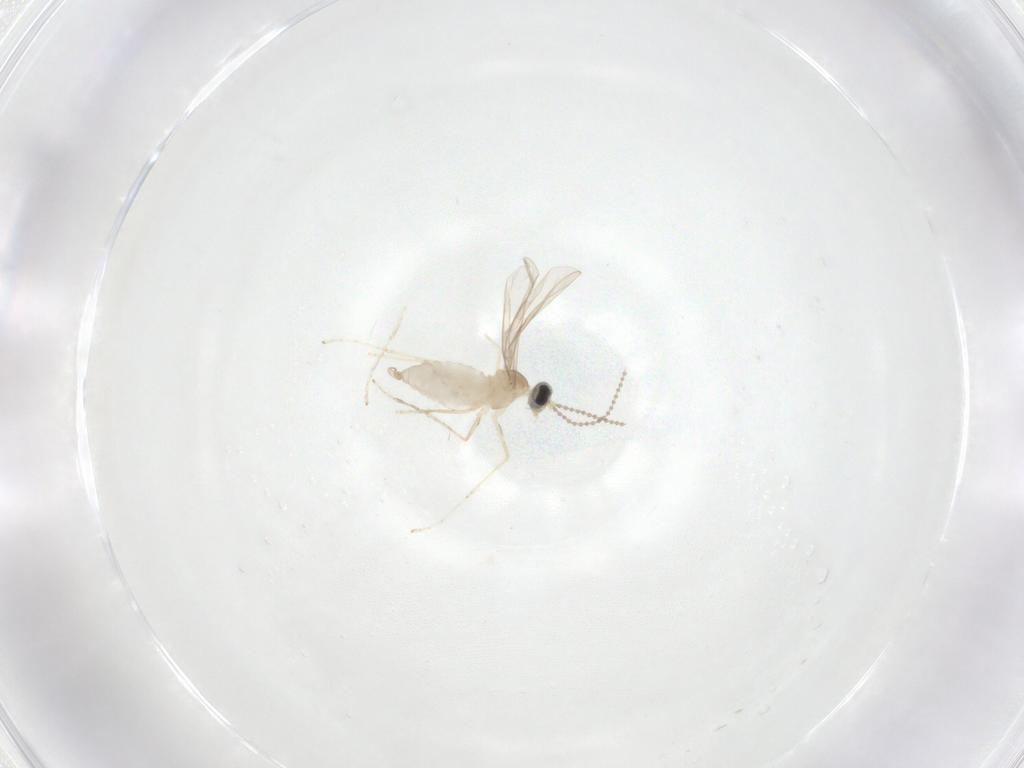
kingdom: Animalia
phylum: Arthropoda
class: Insecta
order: Diptera
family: Cecidomyiidae
